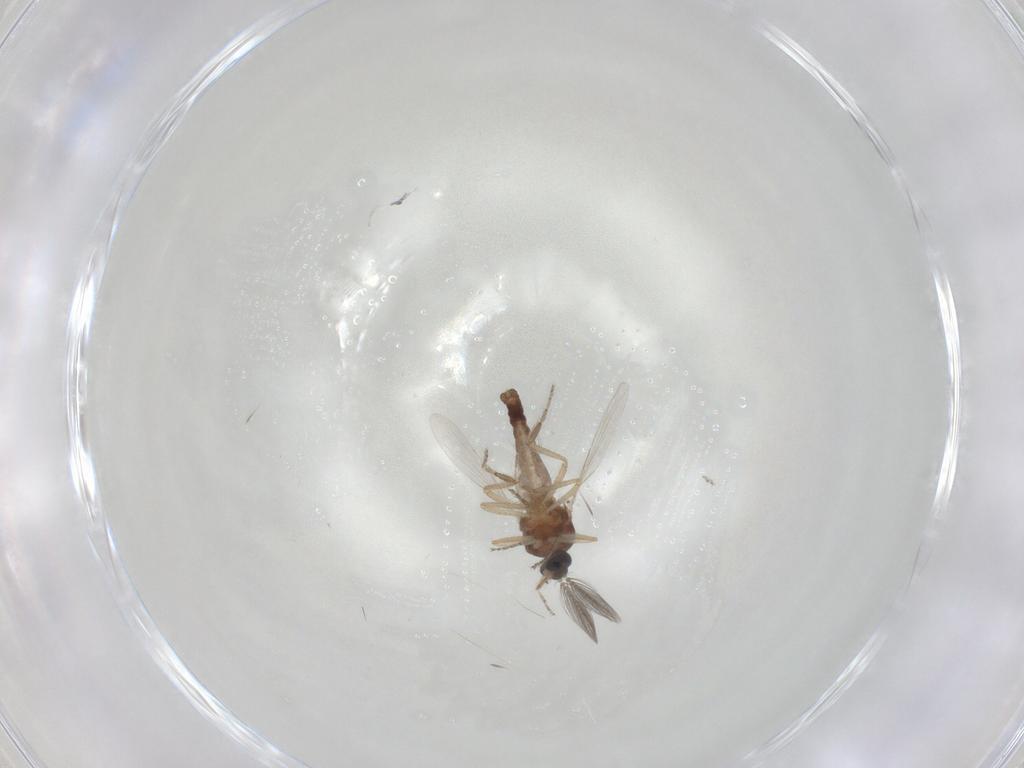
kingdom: Animalia
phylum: Arthropoda
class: Insecta
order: Diptera
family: Ceratopogonidae
